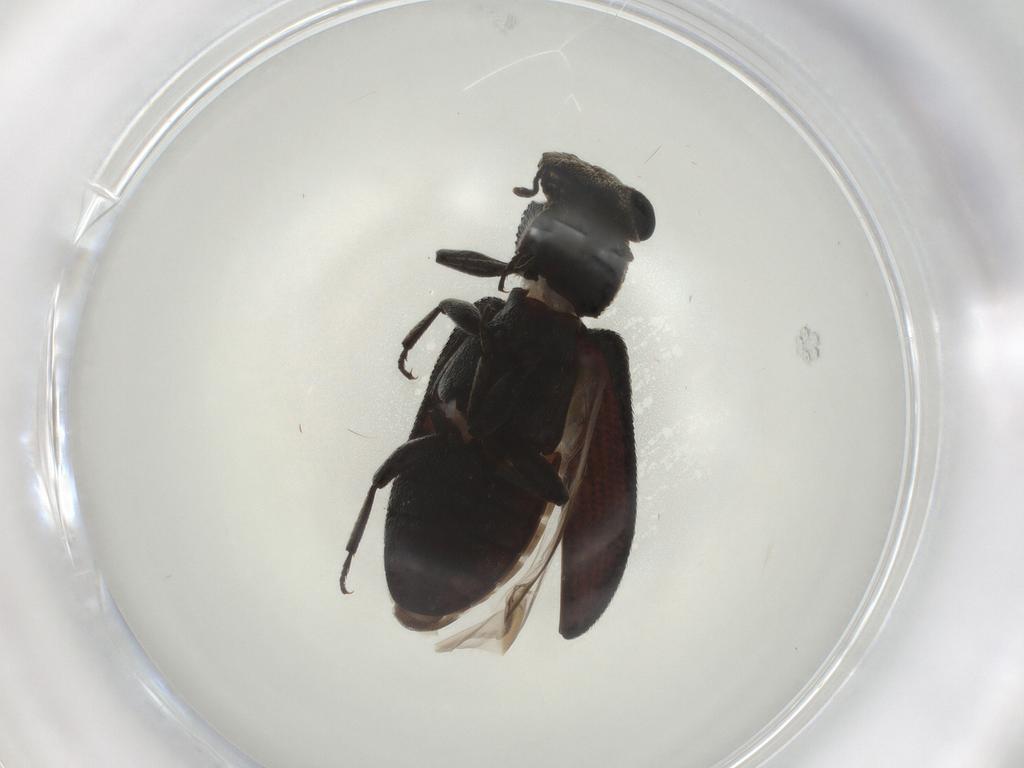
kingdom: Animalia
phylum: Arthropoda
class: Insecta
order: Coleoptera
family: Zopheridae
